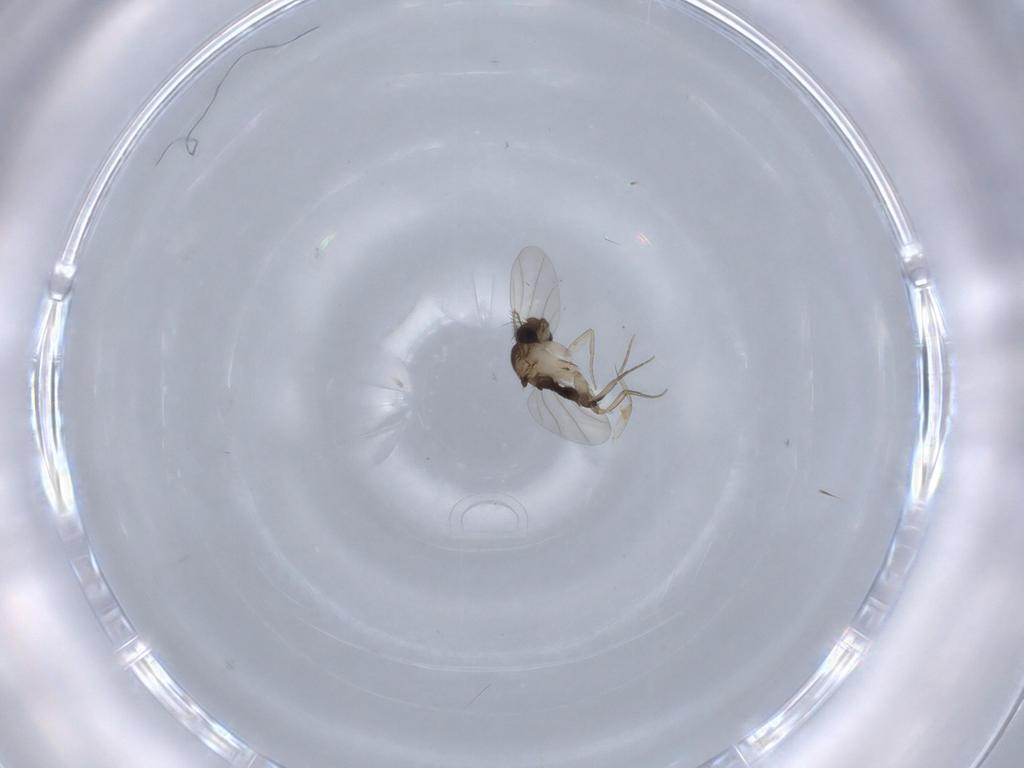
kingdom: Animalia
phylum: Arthropoda
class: Insecta
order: Diptera
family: Phoridae
